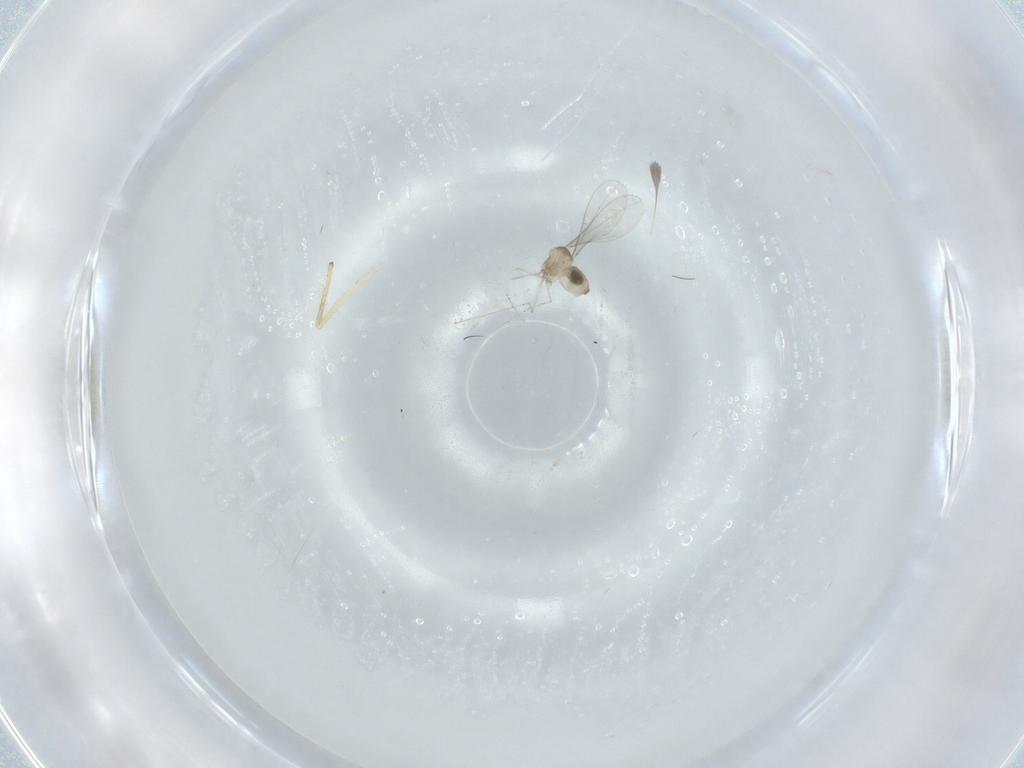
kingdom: Animalia
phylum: Arthropoda
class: Insecta
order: Diptera
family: Cecidomyiidae
